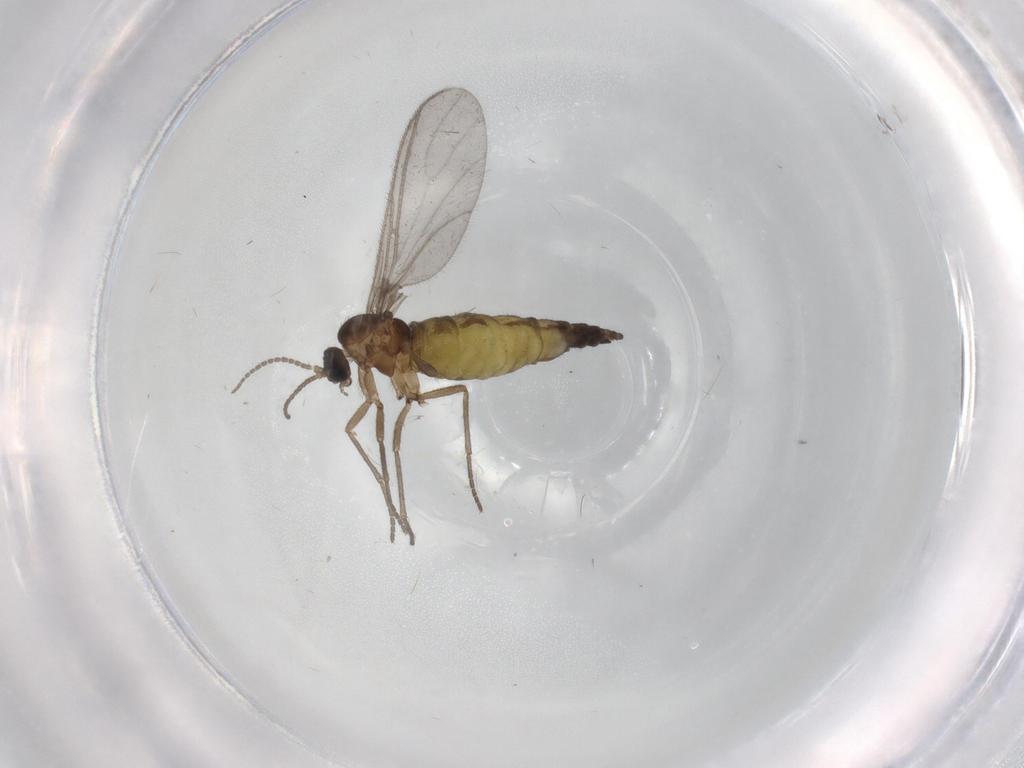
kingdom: Animalia
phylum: Arthropoda
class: Insecta
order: Diptera
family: Sciaridae
